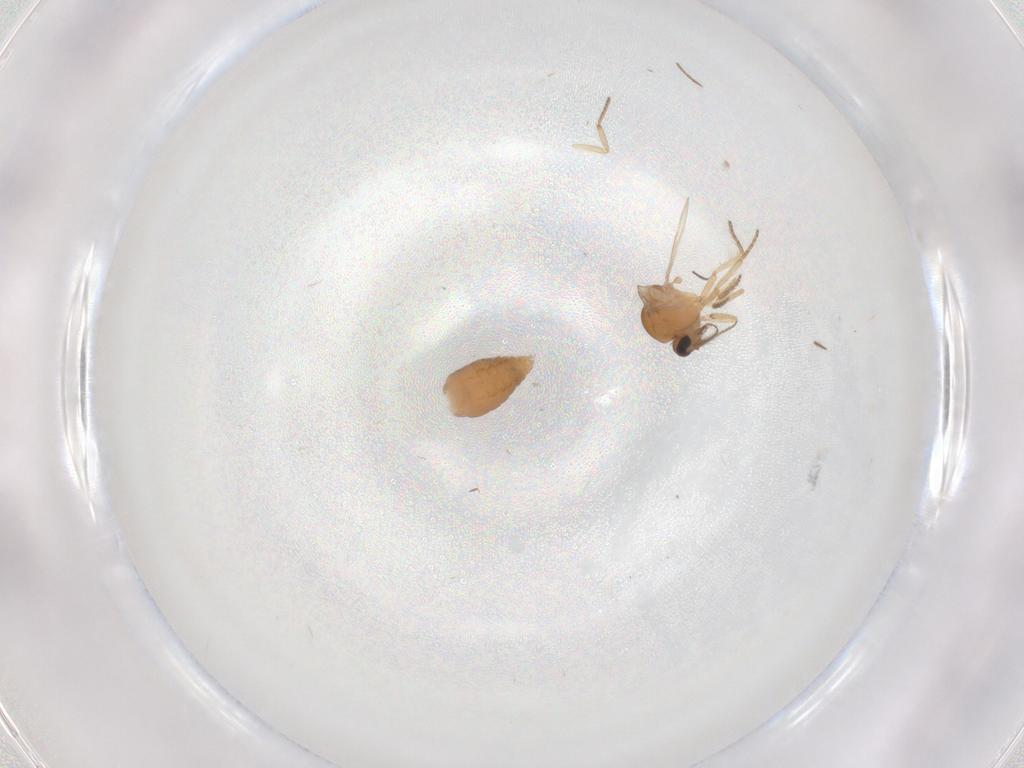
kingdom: Animalia
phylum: Arthropoda
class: Insecta
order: Diptera
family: Ceratopogonidae
